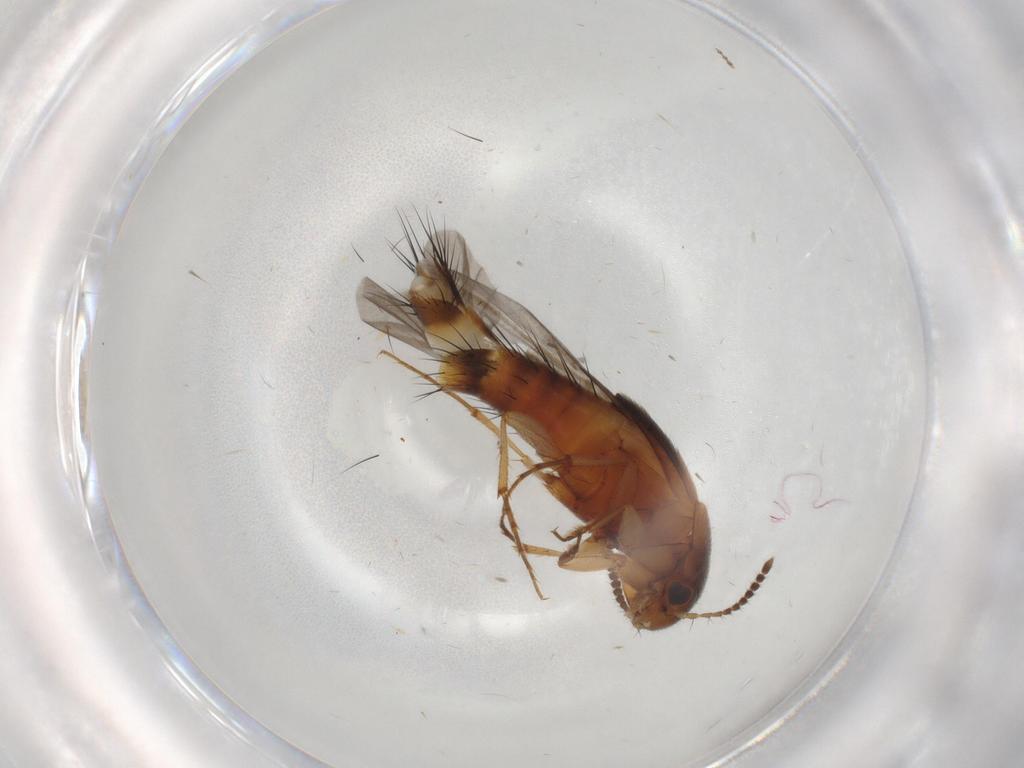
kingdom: Animalia
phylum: Arthropoda
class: Insecta
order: Coleoptera
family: Staphylinidae
